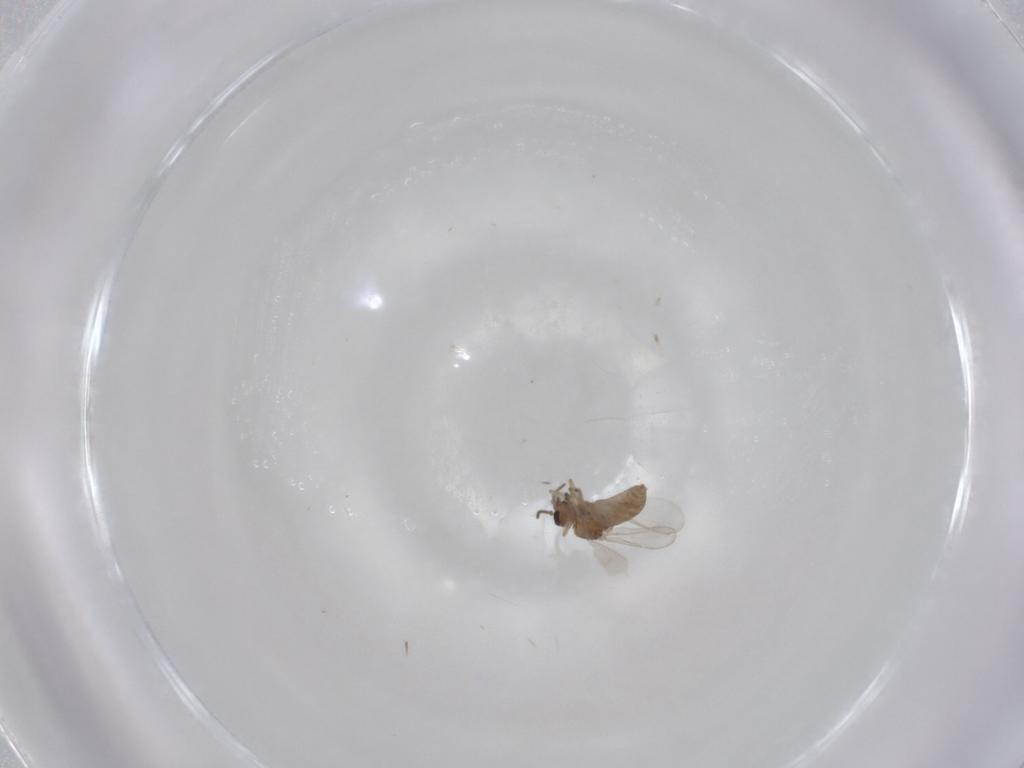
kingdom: Animalia
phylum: Arthropoda
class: Insecta
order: Diptera
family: Ceratopogonidae
